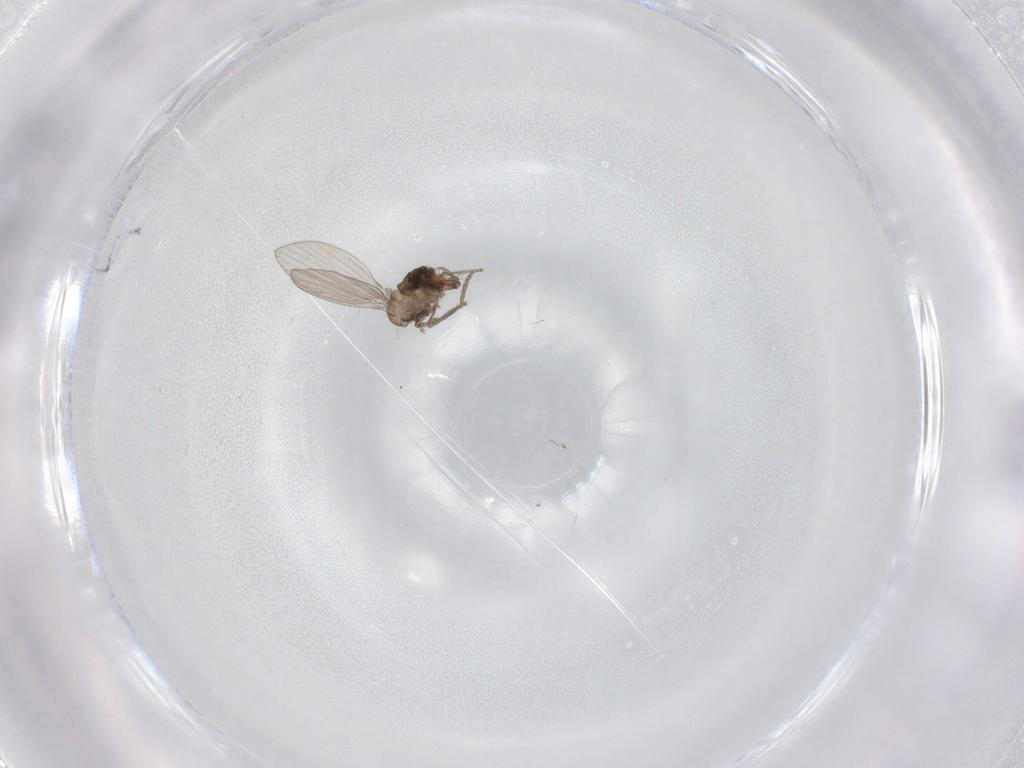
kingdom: Animalia
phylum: Arthropoda
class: Insecta
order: Diptera
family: Psychodidae
